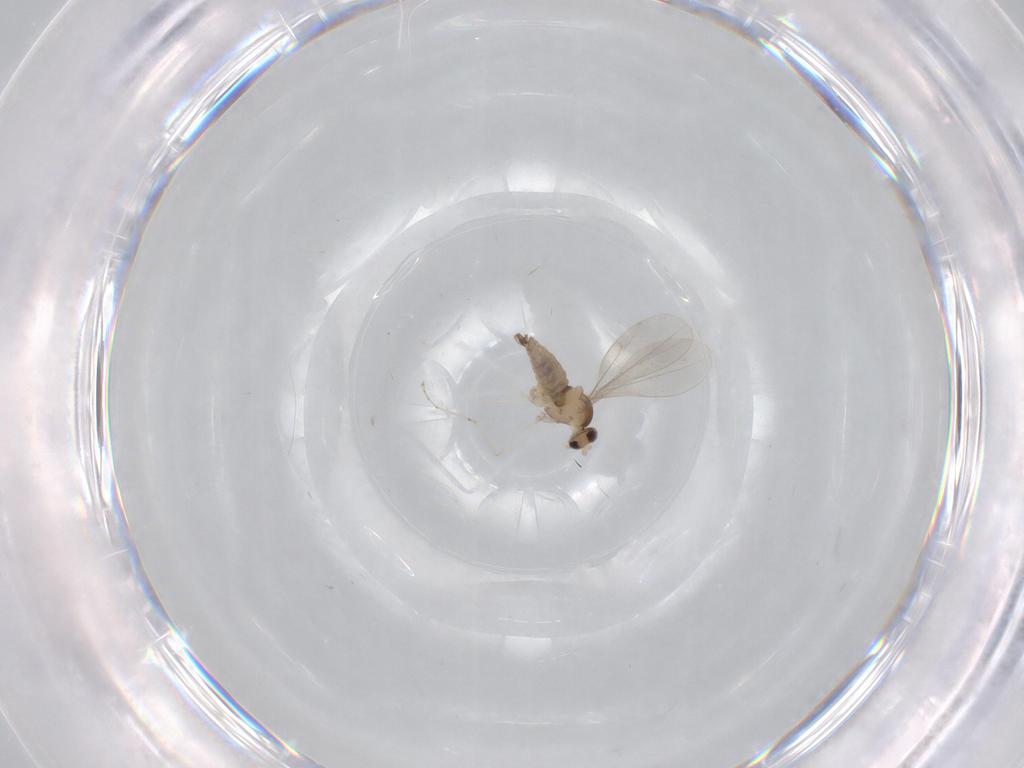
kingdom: Animalia
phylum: Arthropoda
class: Insecta
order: Diptera
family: Cecidomyiidae
